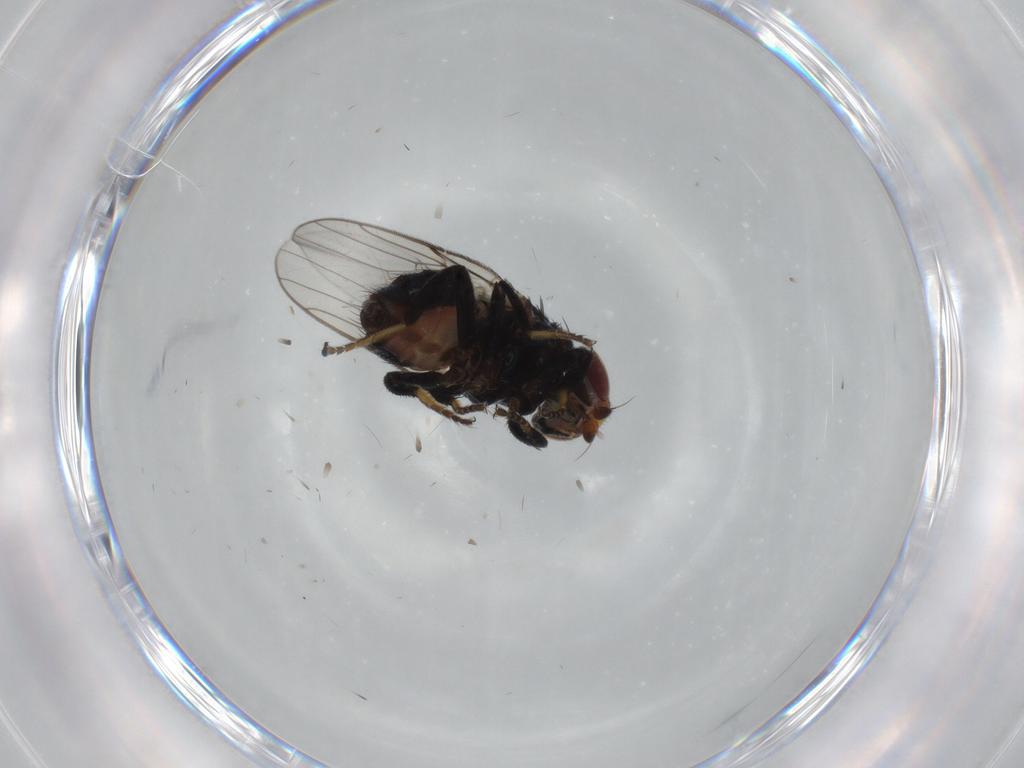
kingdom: Animalia
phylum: Arthropoda
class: Insecta
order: Diptera
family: Chloropidae
